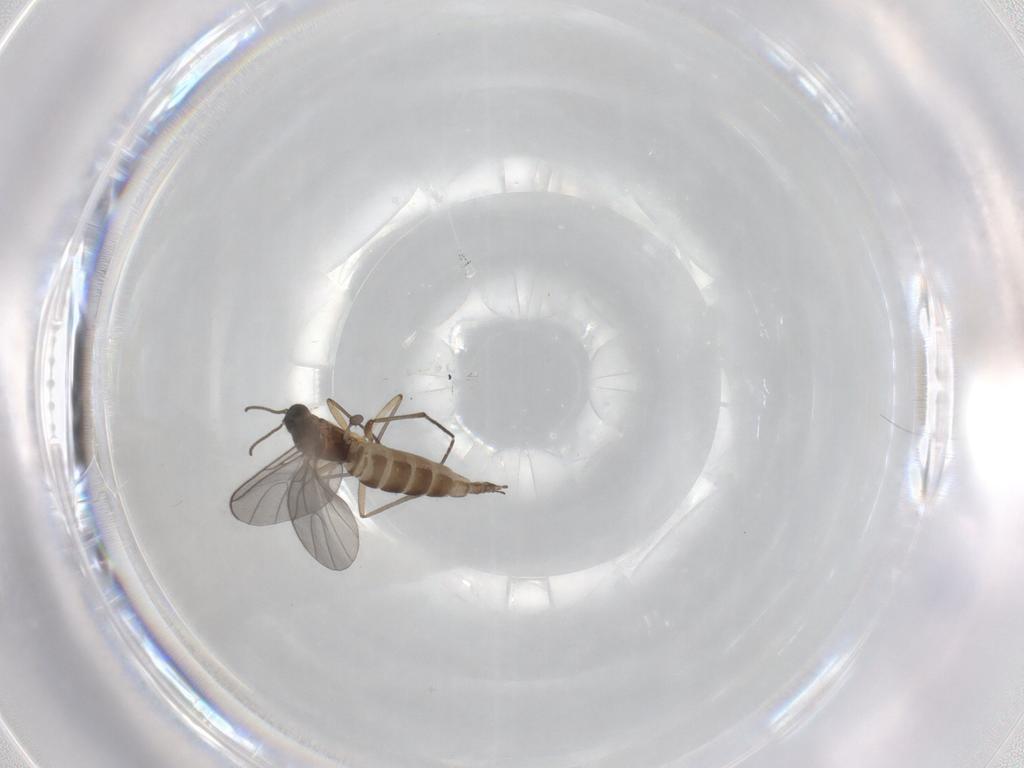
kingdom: Animalia
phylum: Arthropoda
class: Insecta
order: Diptera
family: Sciaridae
